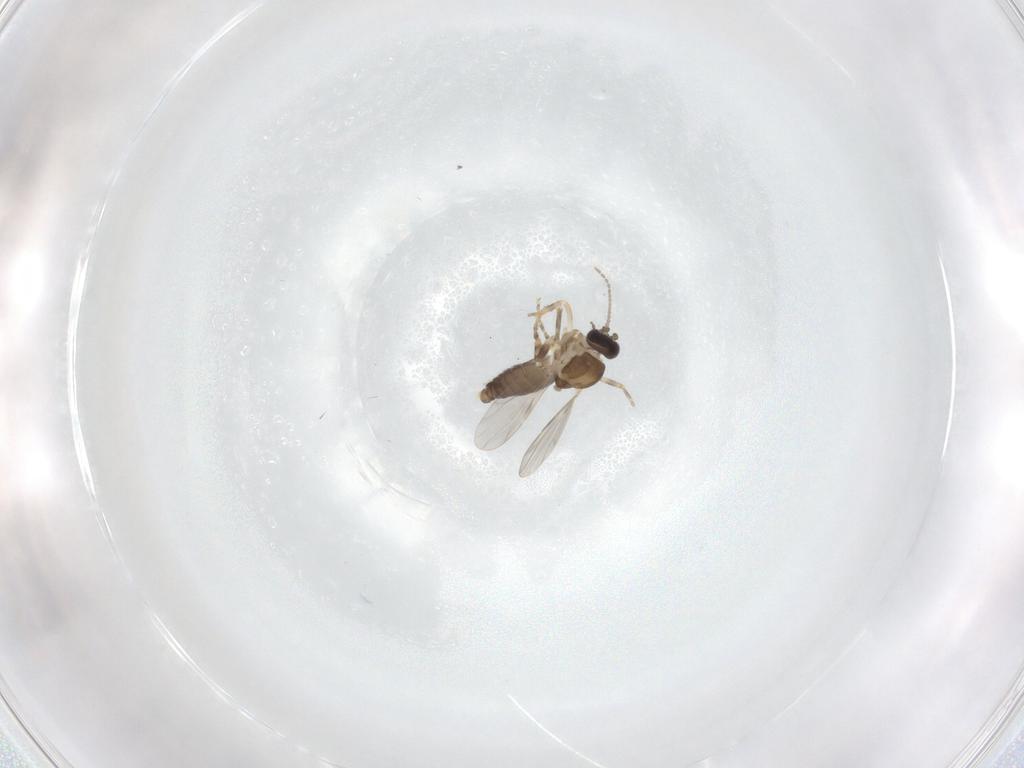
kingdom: Animalia
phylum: Arthropoda
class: Insecta
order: Diptera
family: Ceratopogonidae
